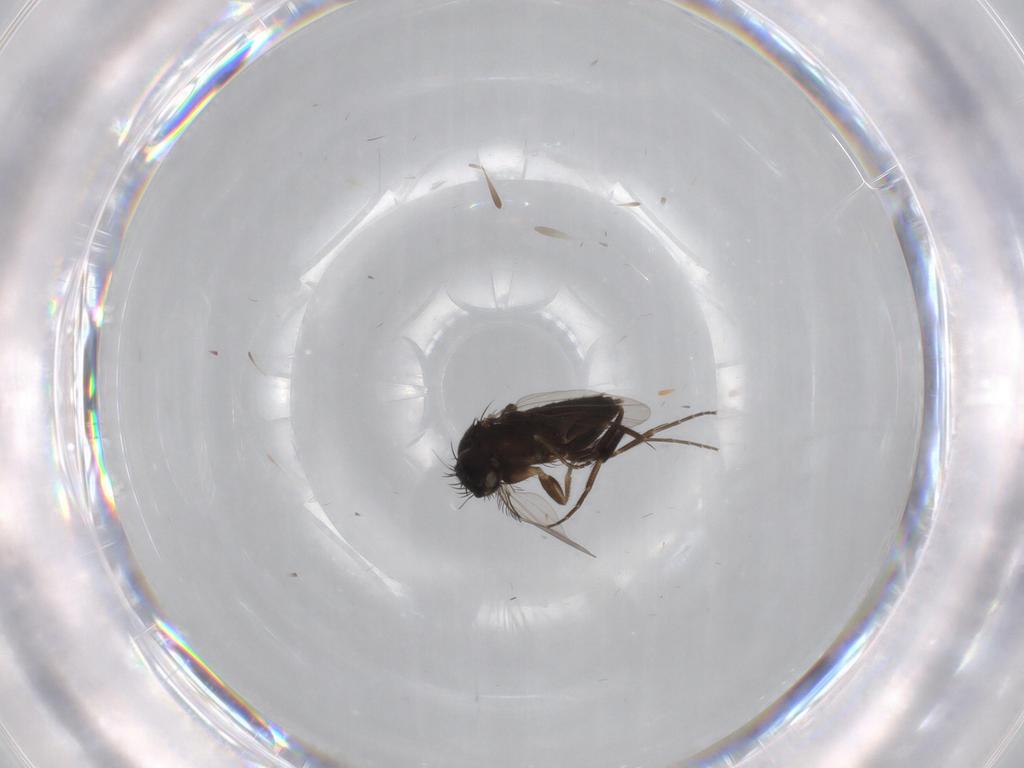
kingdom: Animalia
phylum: Arthropoda
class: Insecta
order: Diptera
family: Phoridae
